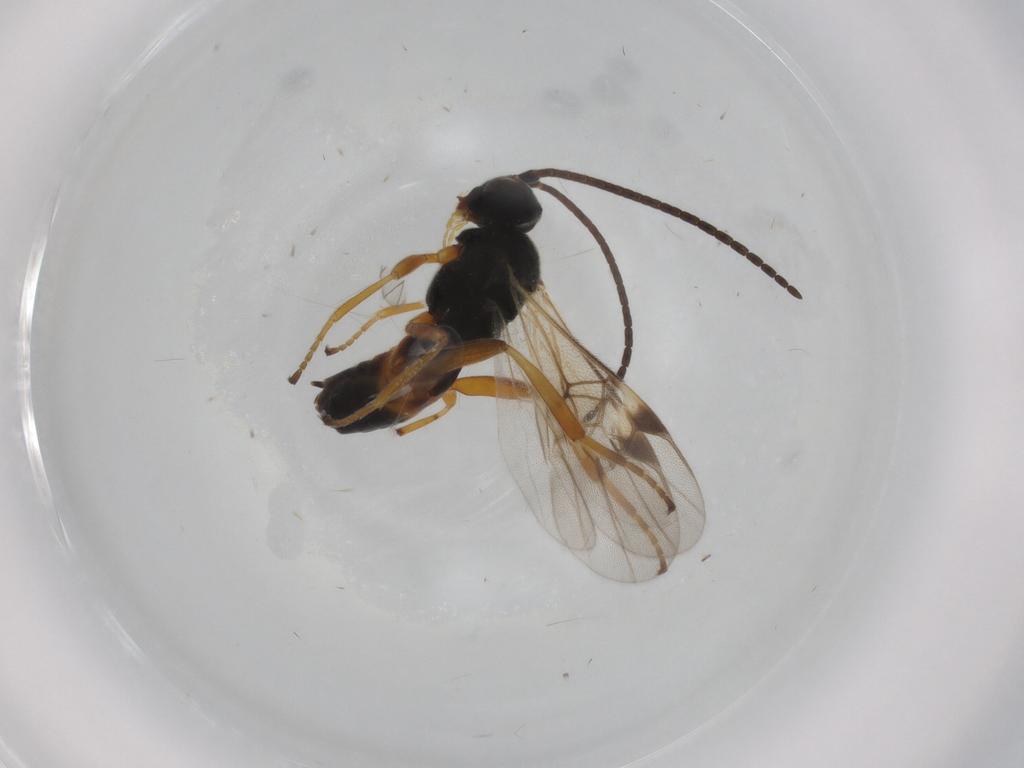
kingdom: Animalia
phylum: Arthropoda
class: Insecta
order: Hymenoptera
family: Braconidae
